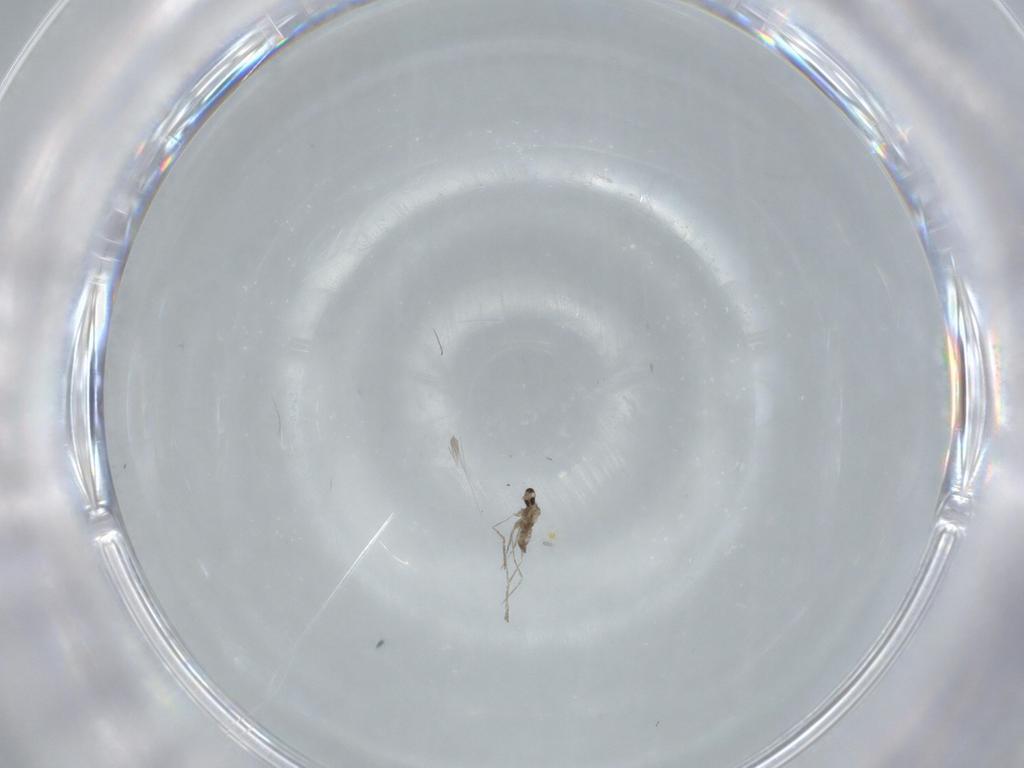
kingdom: Animalia
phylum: Arthropoda
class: Insecta
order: Diptera
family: Cecidomyiidae
